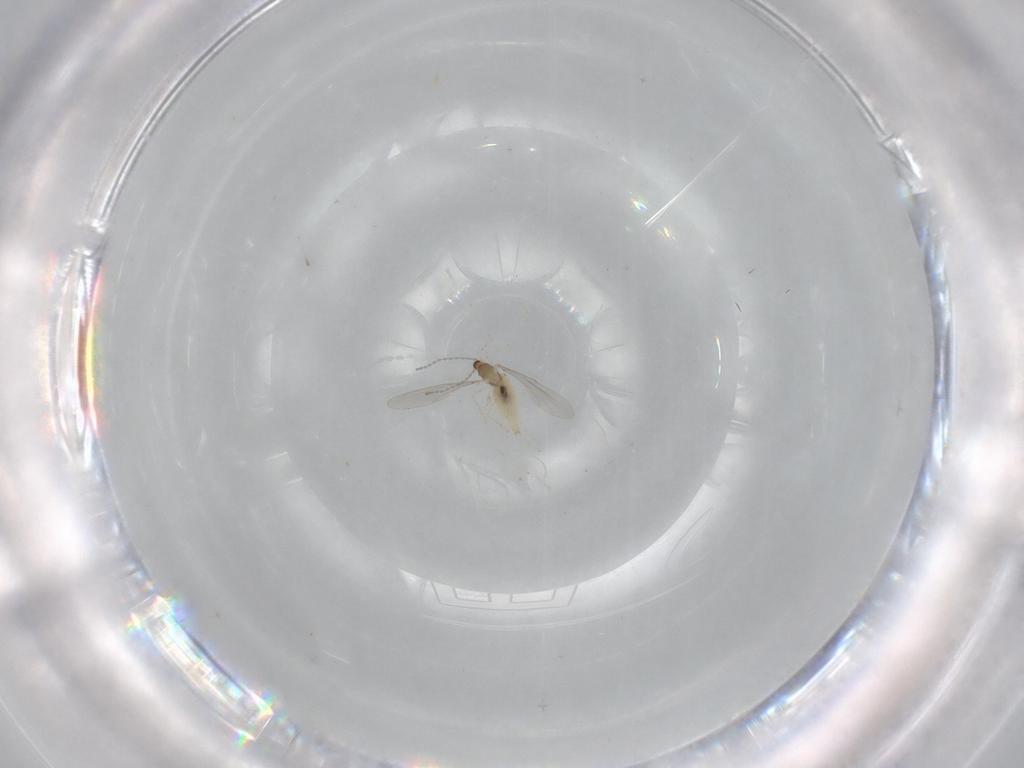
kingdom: Animalia
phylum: Arthropoda
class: Insecta
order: Diptera
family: Cecidomyiidae
